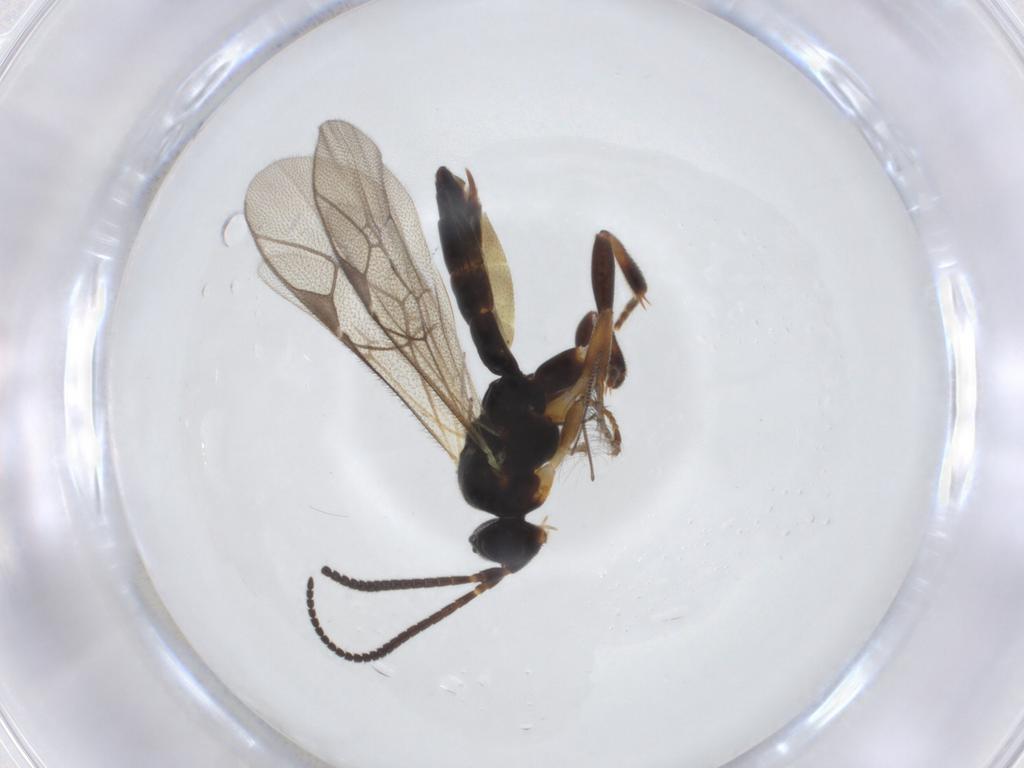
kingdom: Animalia
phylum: Arthropoda
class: Insecta
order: Hymenoptera
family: Ichneumonidae
